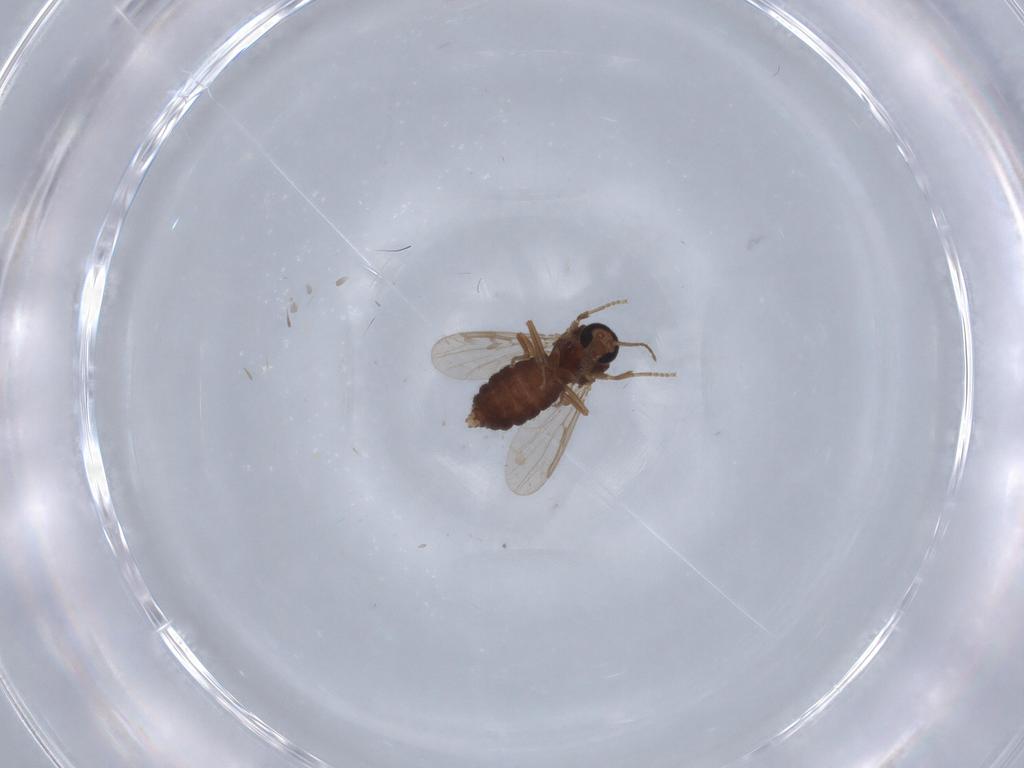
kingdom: Animalia
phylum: Arthropoda
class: Insecta
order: Diptera
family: Ceratopogonidae
